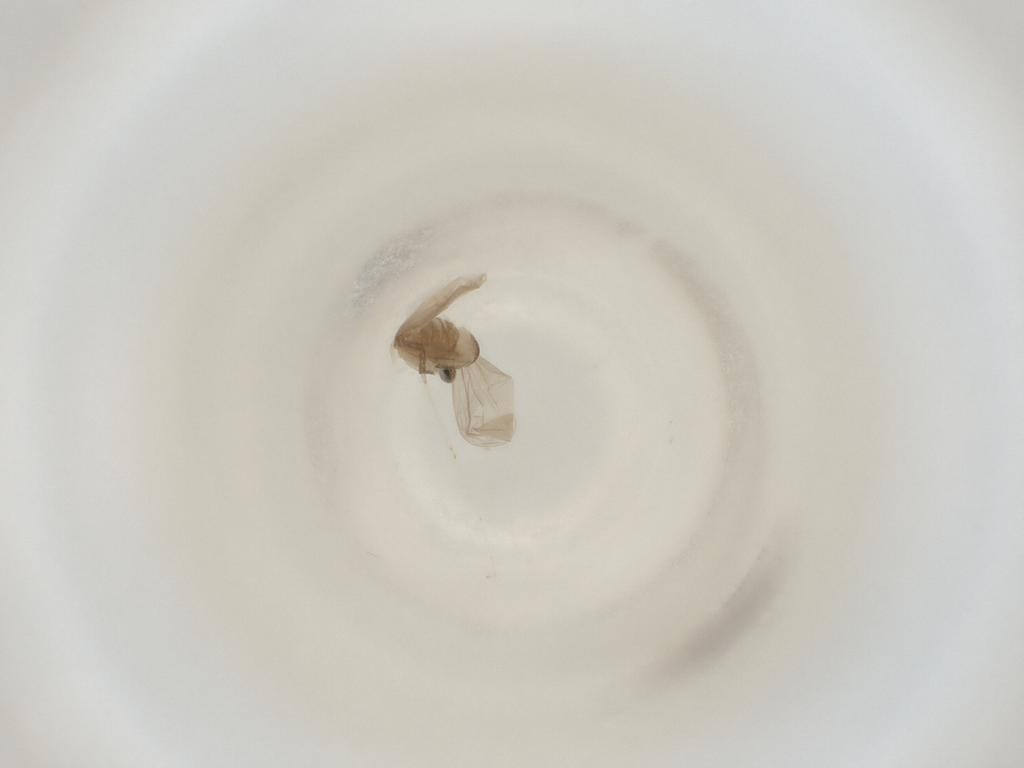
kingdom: Animalia
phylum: Arthropoda
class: Insecta
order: Diptera
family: Cecidomyiidae
